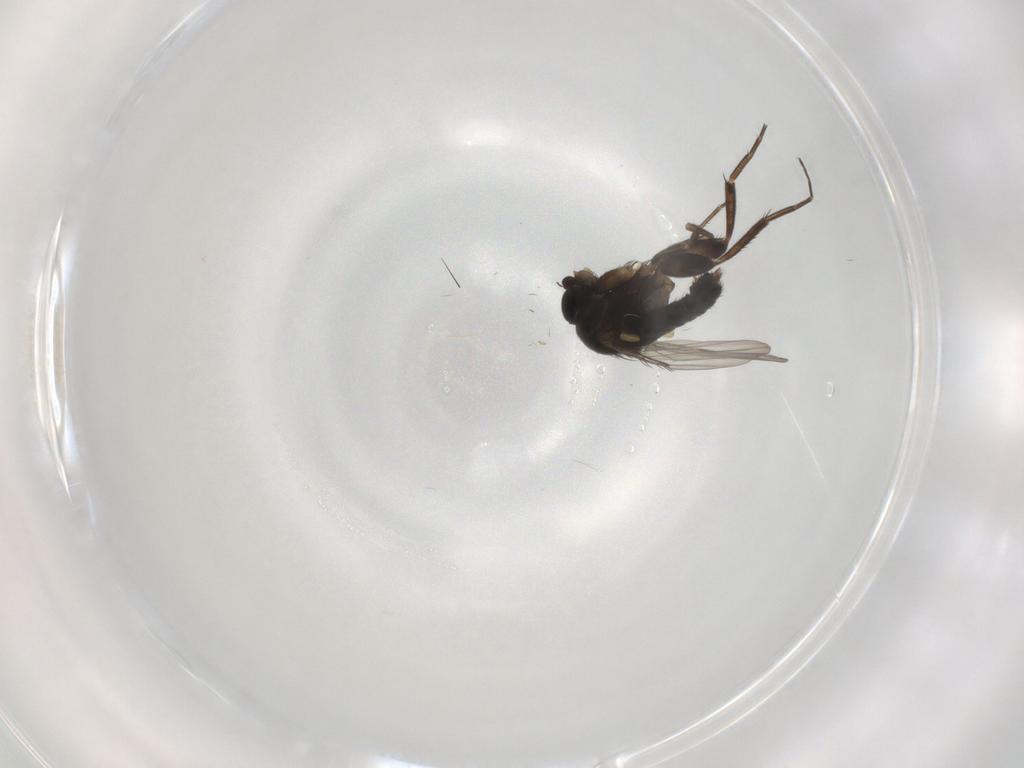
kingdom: Animalia
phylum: Arthropoda
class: Insecta
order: Diptera
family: Phoridae
